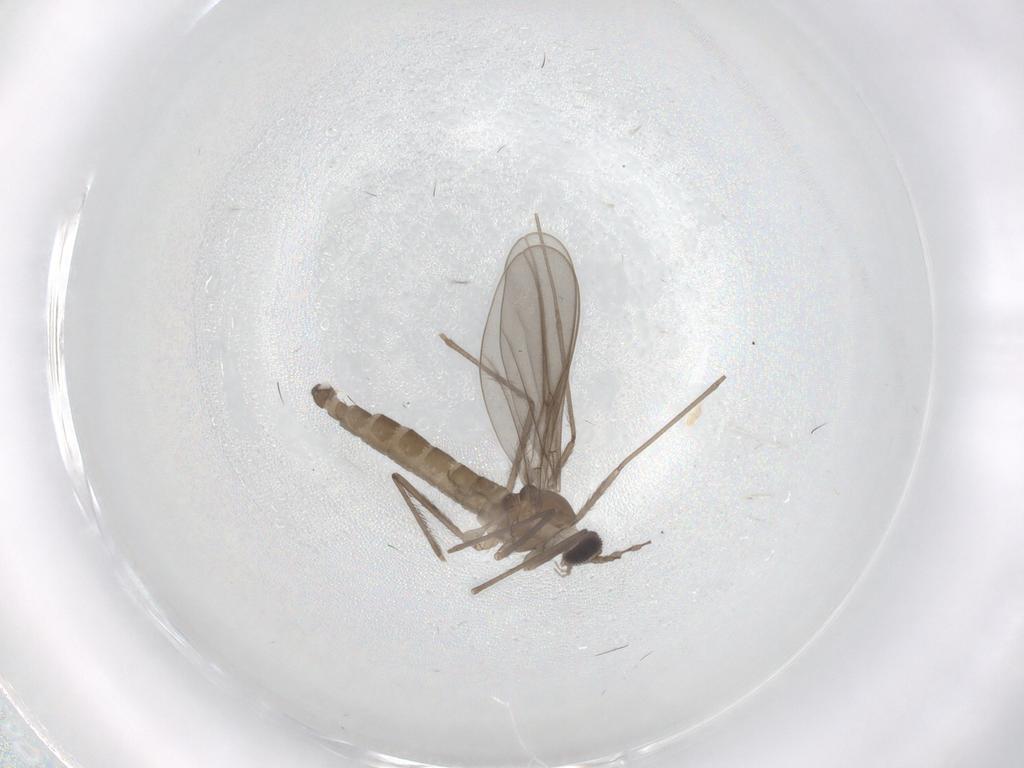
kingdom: Animalia
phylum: Arthropoda
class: Insecta
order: Diptera
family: Cecidomyiidae
